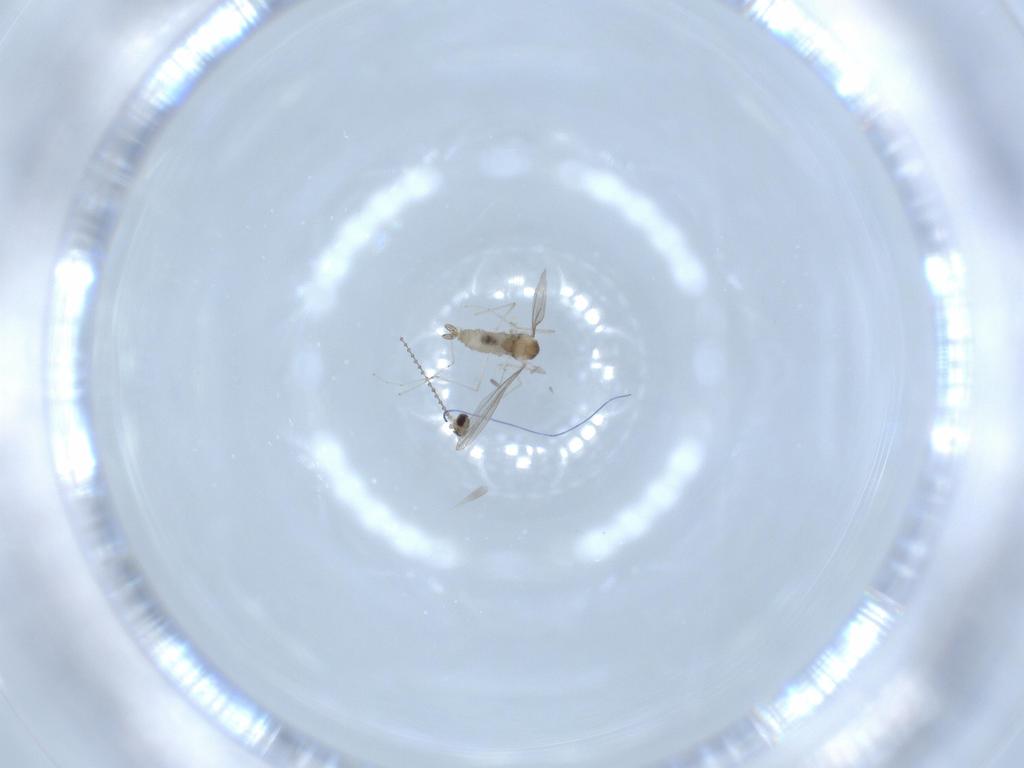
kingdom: Animalia
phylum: Arthropoda
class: Insecta
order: Diptera
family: Cecidomyiidae
